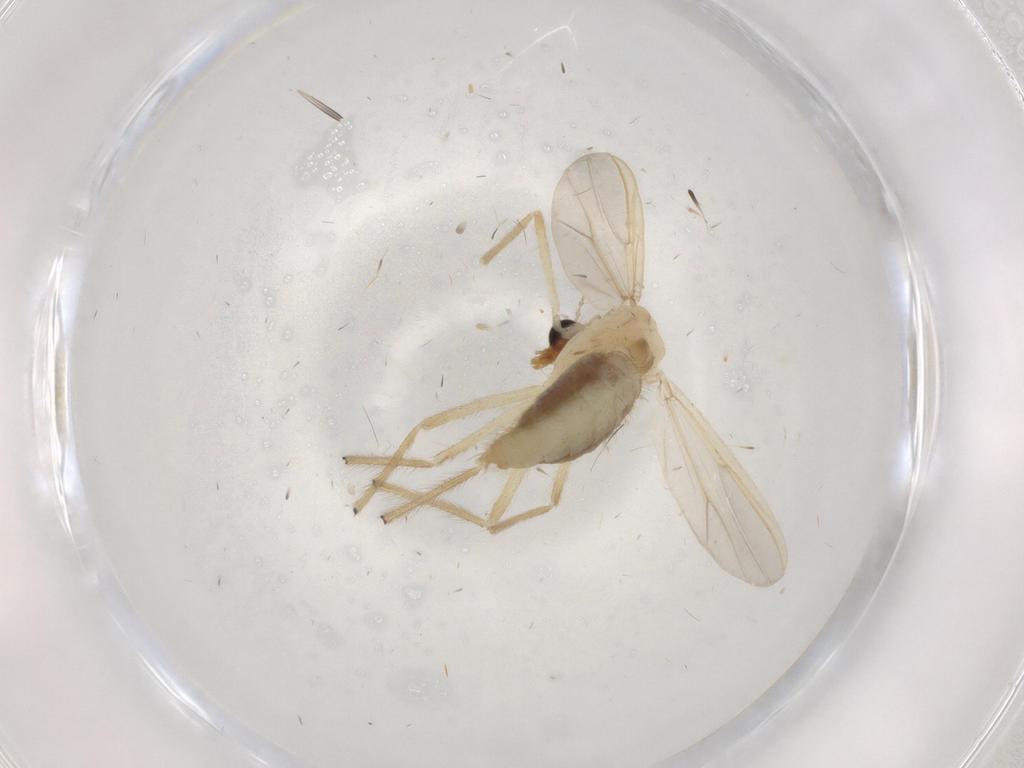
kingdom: Animalia
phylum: Arthropoda
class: Insecta
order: Diptera
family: Chironomidae
